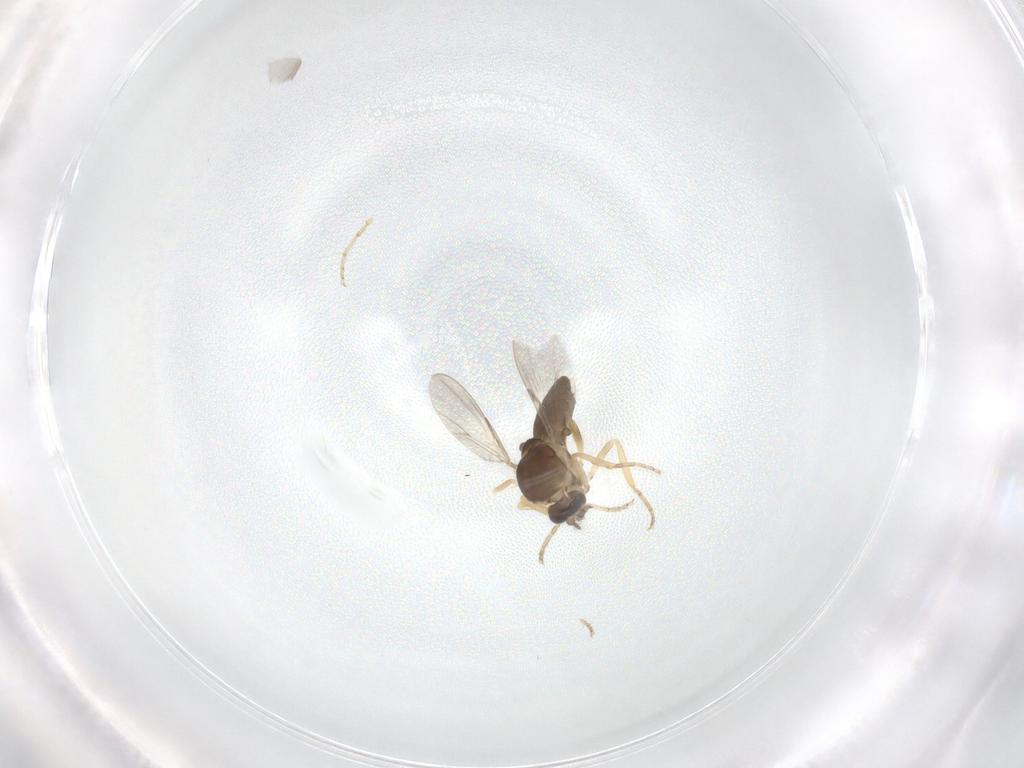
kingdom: Animalia
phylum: Arthropoda
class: Insecta
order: Diptera
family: Ceratopogonidae
